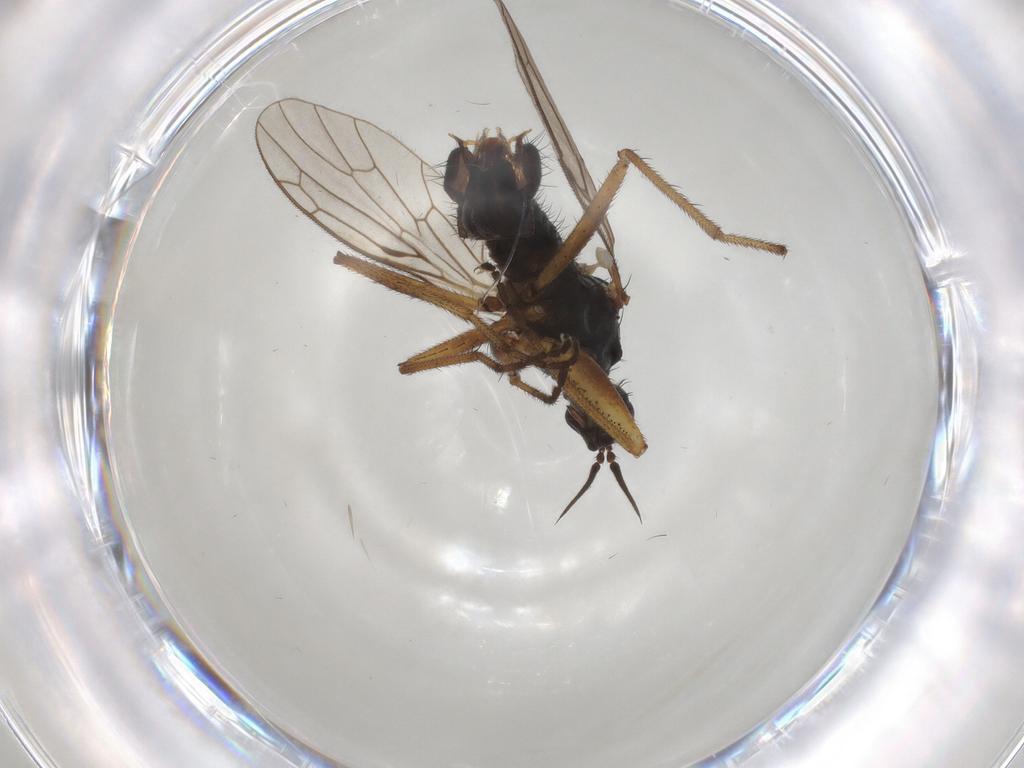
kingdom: Animalia
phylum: Arthropoda
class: Insecta
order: Diptera
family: Empididae
